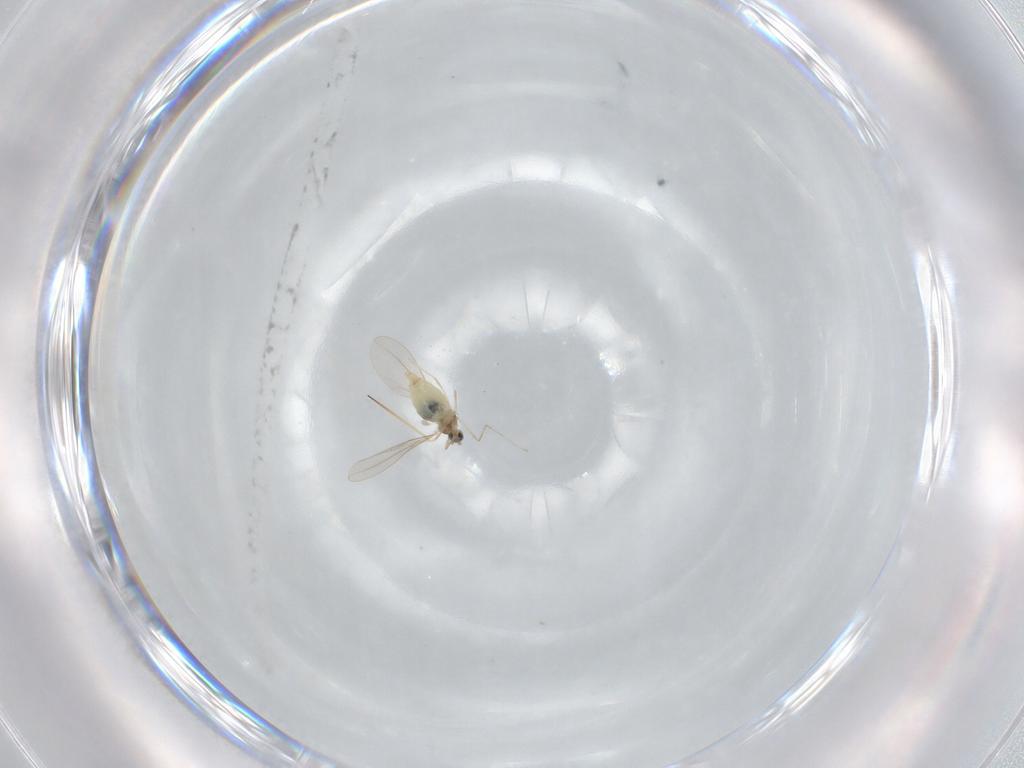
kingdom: Animalia
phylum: Arthropoda
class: Insecta
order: Diptera
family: Cecidomyiidae
